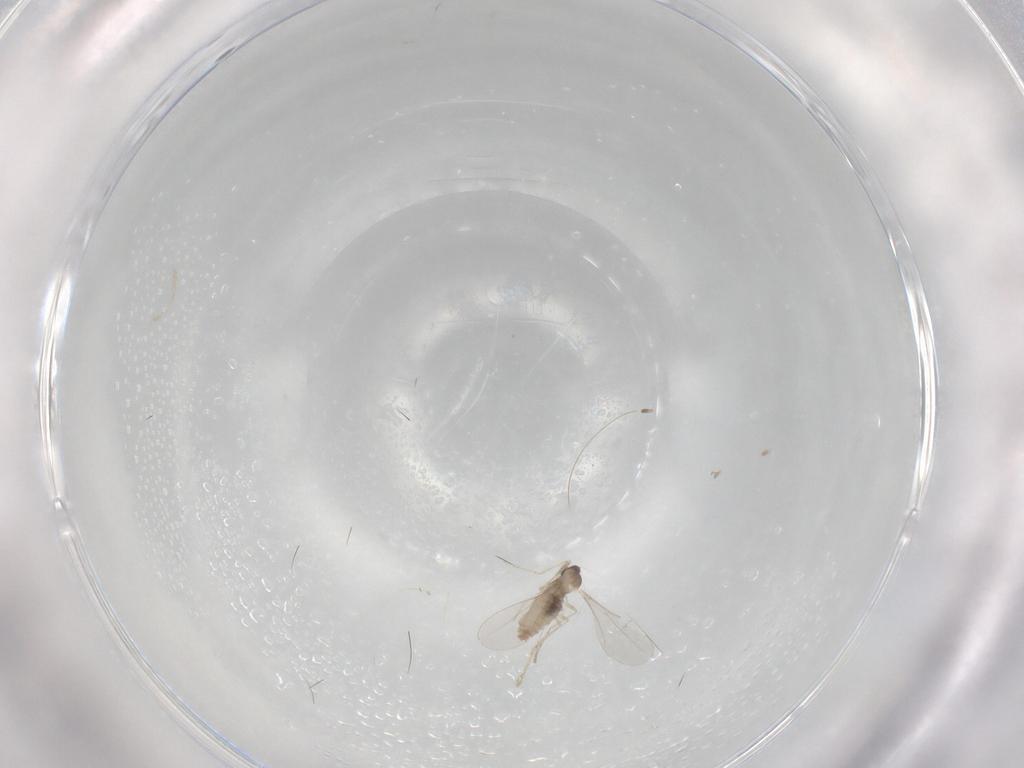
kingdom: Animalia
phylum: Arthropoda
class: Insecta
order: Diptera
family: Cecidomyiidae
